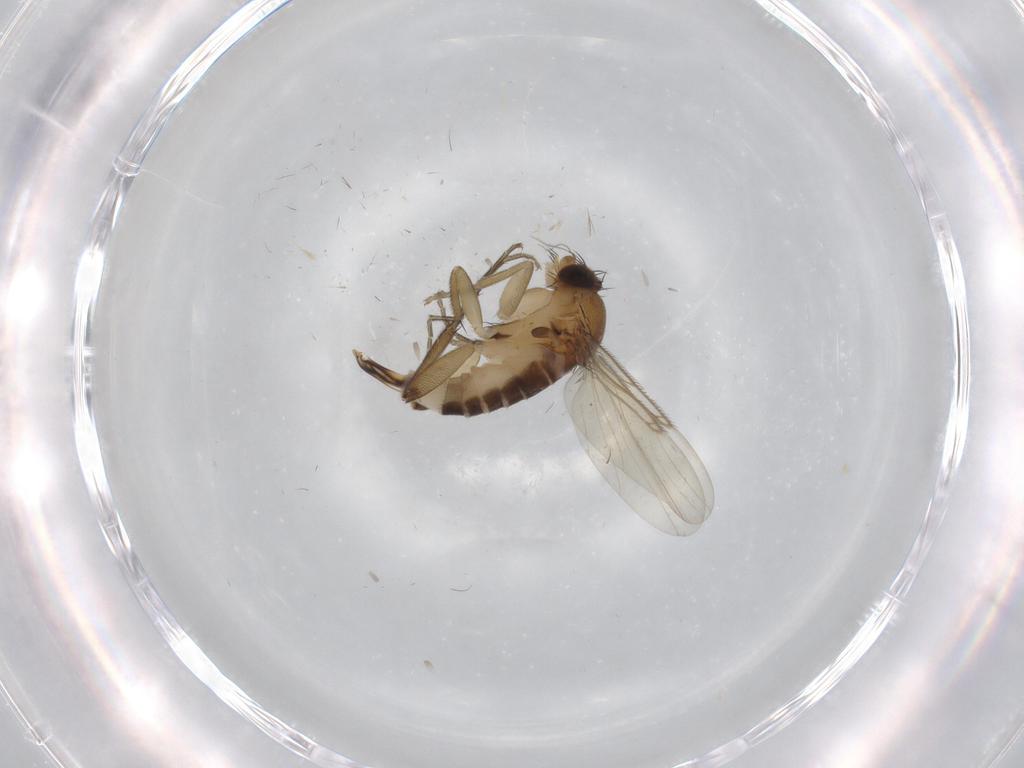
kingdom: Animalia
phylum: Arthropoda
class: Insecta
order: Diptera
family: Phoridae
